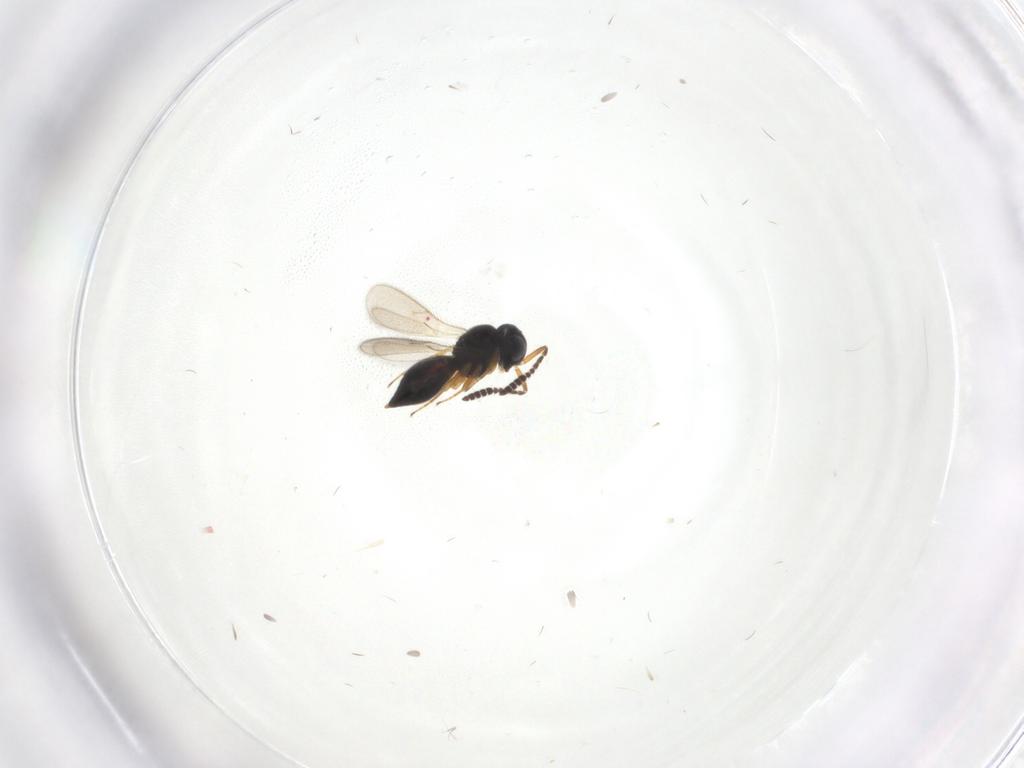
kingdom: Animalia
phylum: Arthropoda
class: Insecta
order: Hymenoptera
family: Scelionidae
